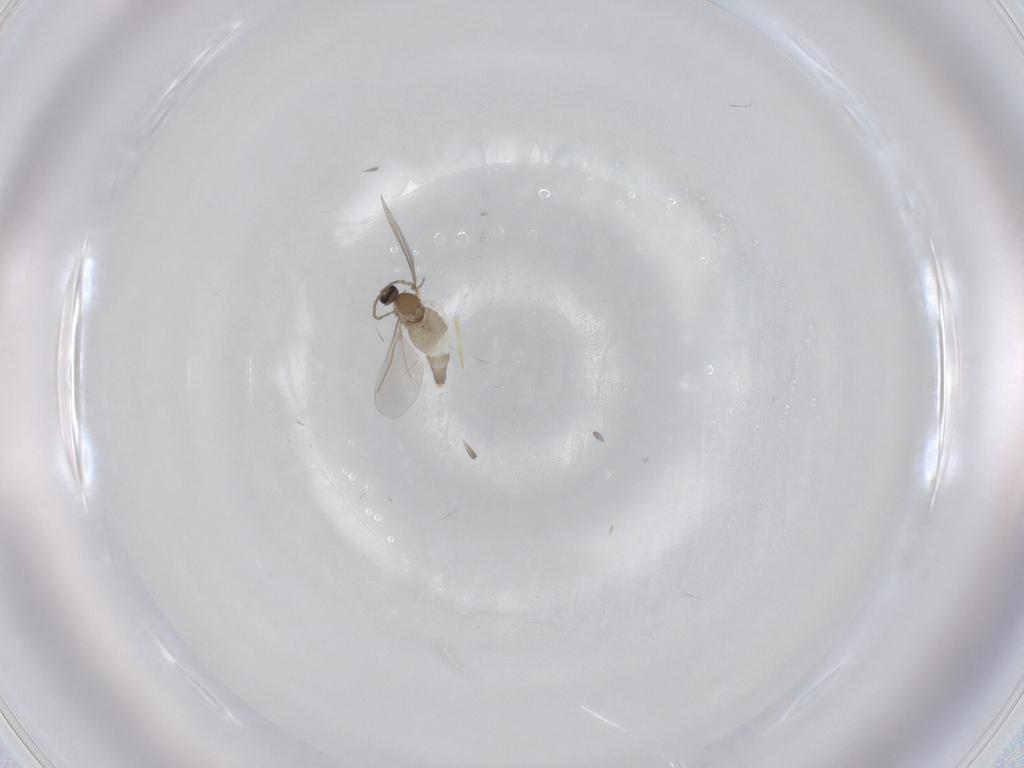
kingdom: Animalia
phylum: Arthropoda
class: Insecta
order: Diptera
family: Cecidomyiidae
